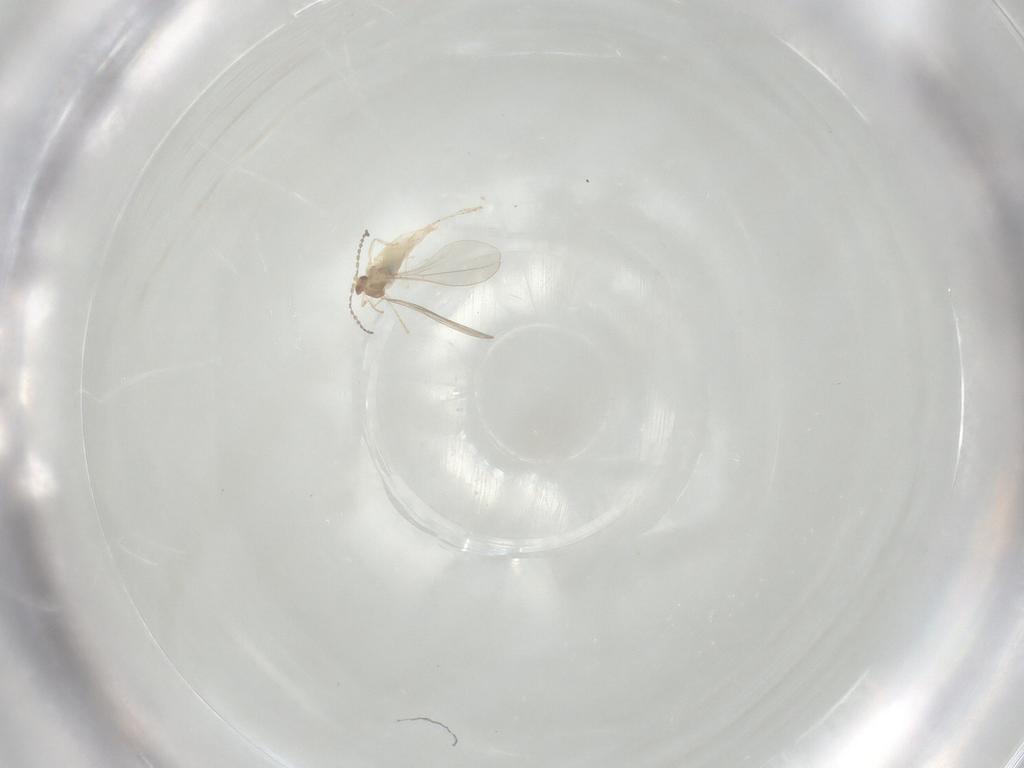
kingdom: Animalia
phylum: Arthropoda
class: Insecta
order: Diptera
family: Cecidomyiidae
